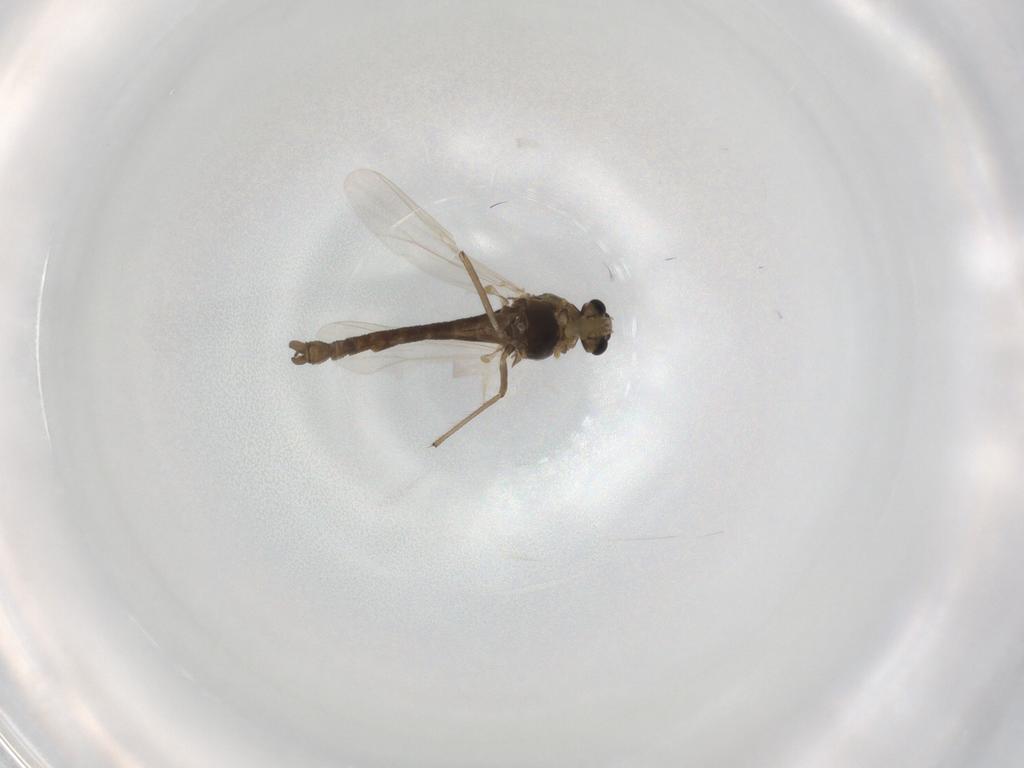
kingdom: Animalia
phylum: Arthropoda
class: Insecta
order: Diptera
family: Chironomidae
